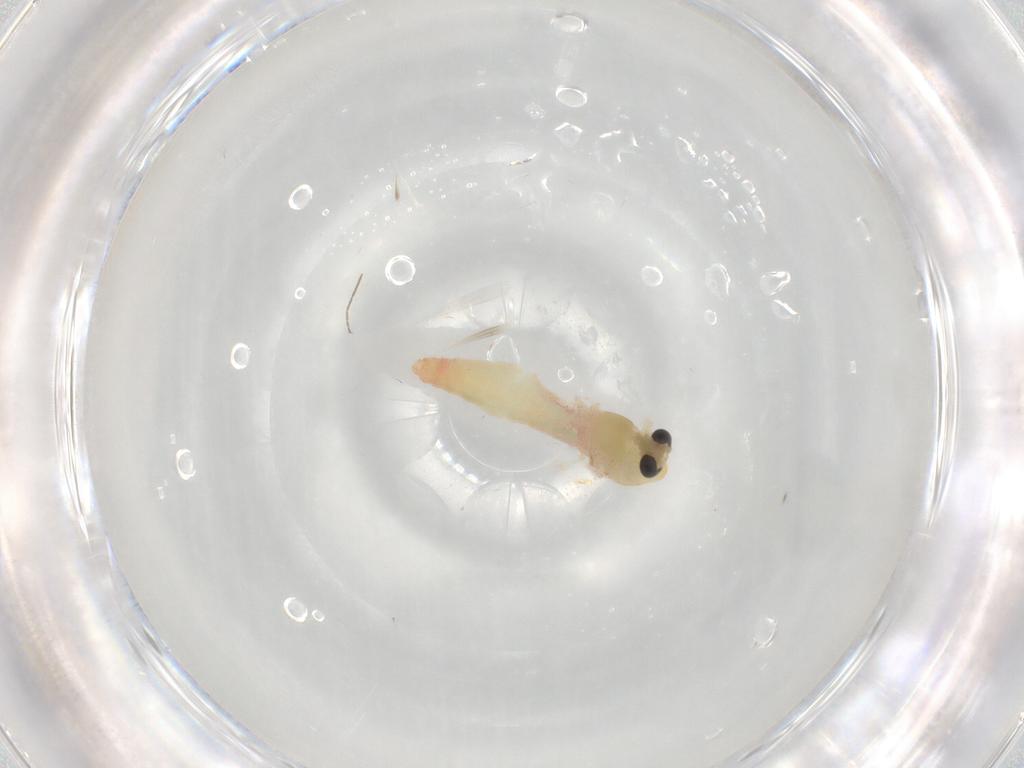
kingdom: Animalia
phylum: Arthropoda
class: Insecta
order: Diptera
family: Chironomidae
